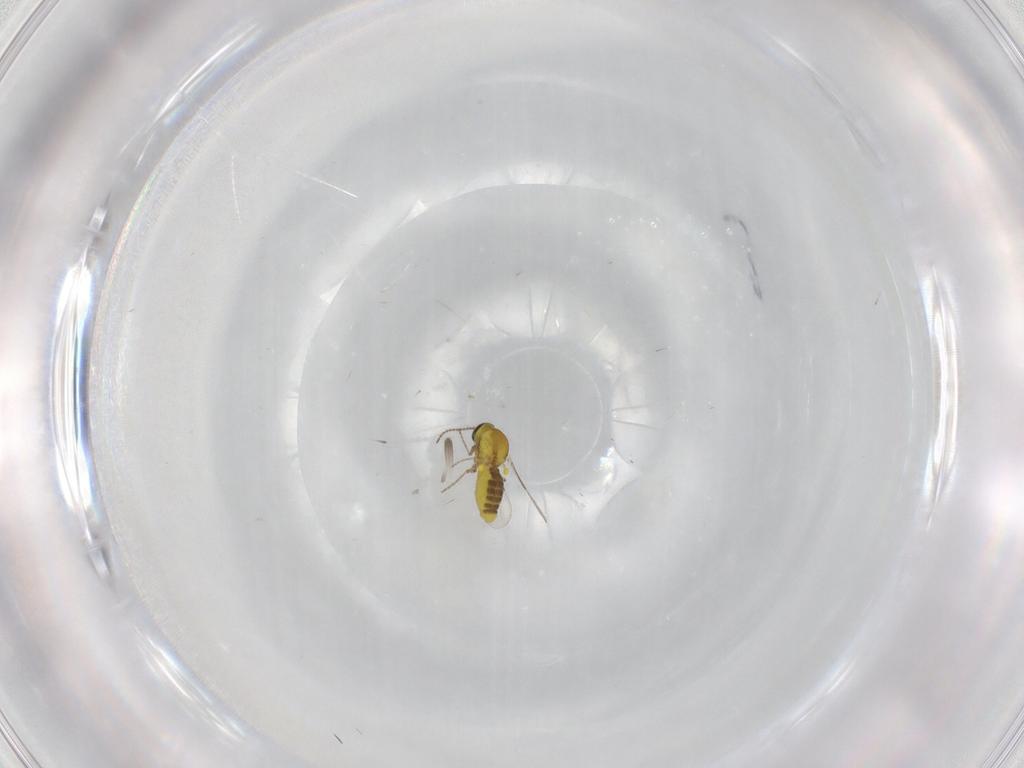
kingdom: Animalia
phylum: Arthropoda
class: Insecta
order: Diptera
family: Ceratopogonidae
